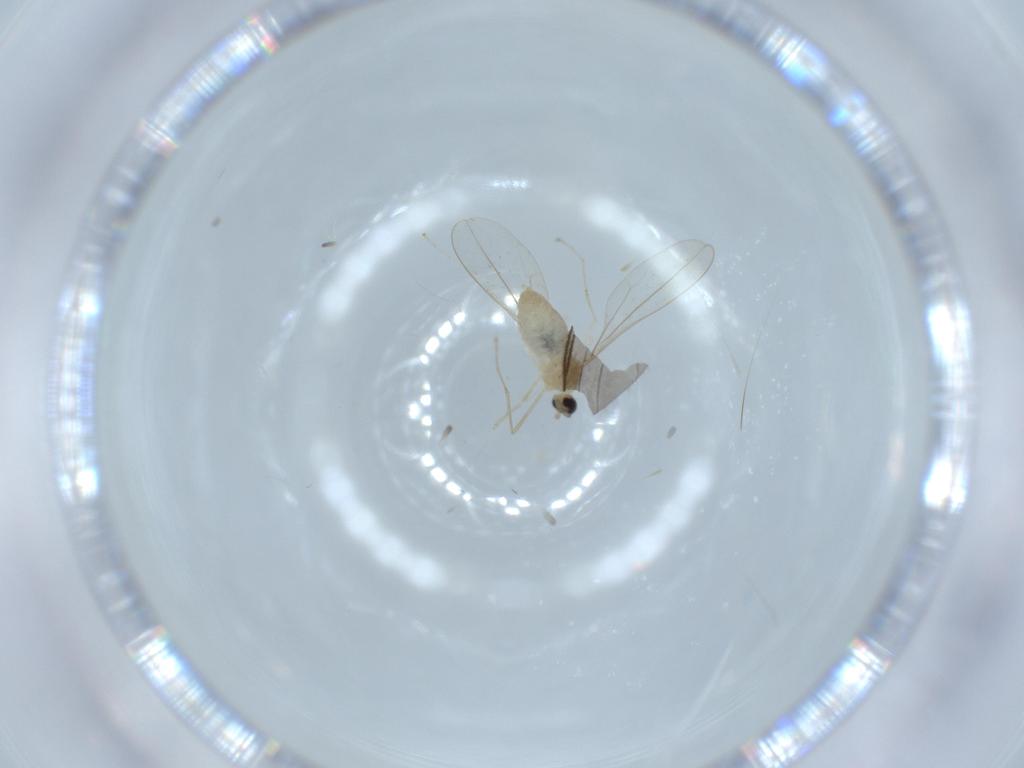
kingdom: Animalia
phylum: Arthropoda
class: Insecta
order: Diptera
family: Cecidomyiidae
